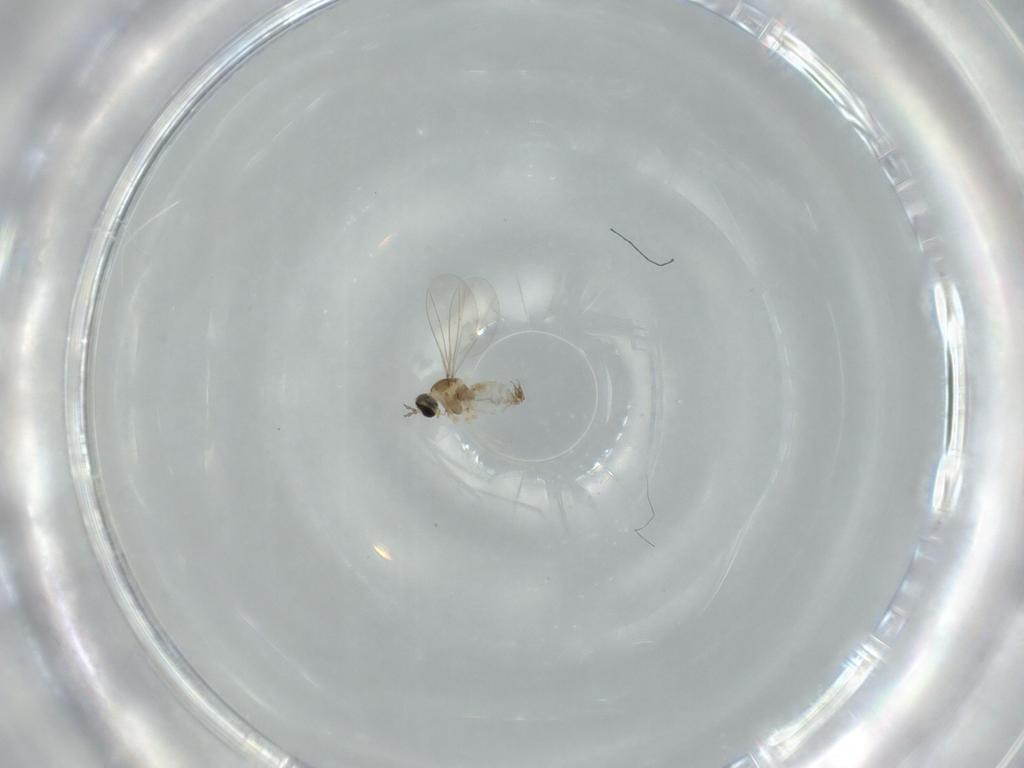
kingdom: Animalia
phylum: Arthropoda
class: Insecta
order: Diptera
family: Cecidomyiidae
